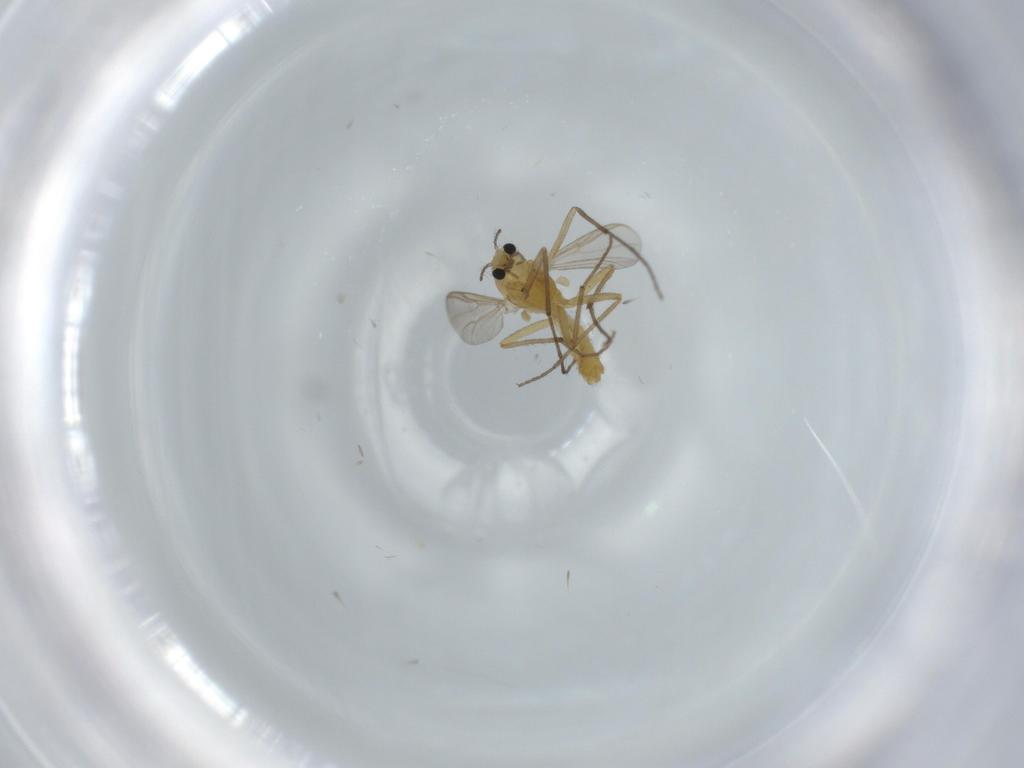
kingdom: Animalia
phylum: Arthropoda
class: Insecta
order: Diptera
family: Chironomidae
